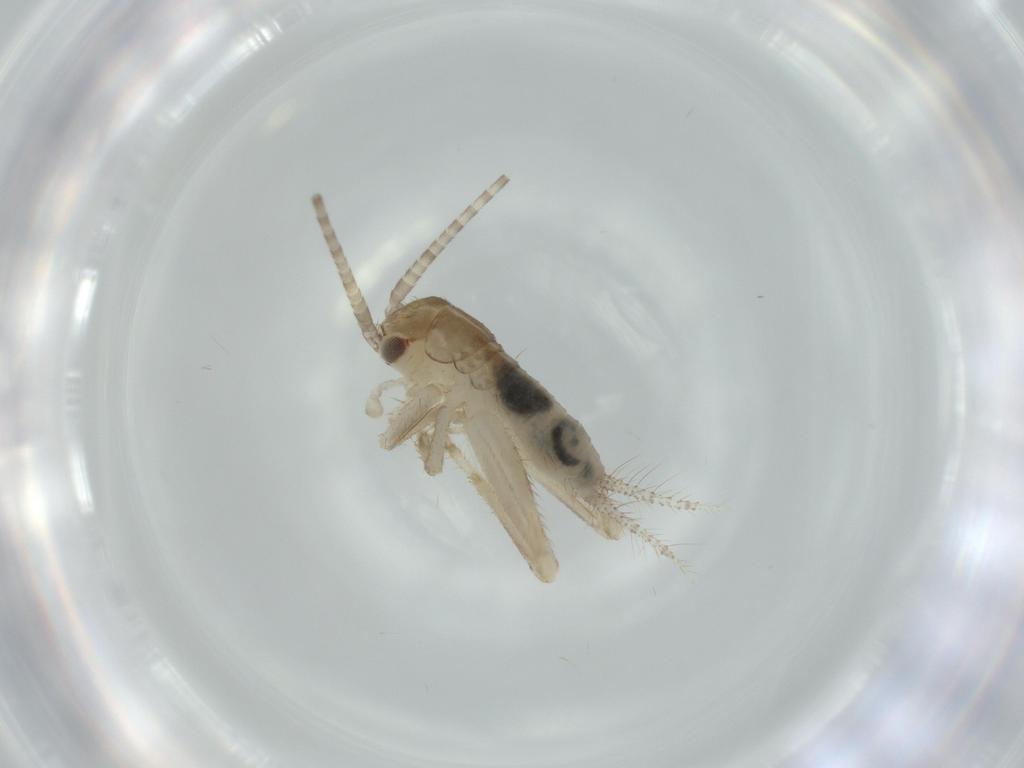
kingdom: Animalia
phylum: Arthropoda
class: Insecta
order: Orthoptera
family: Gryllidae
